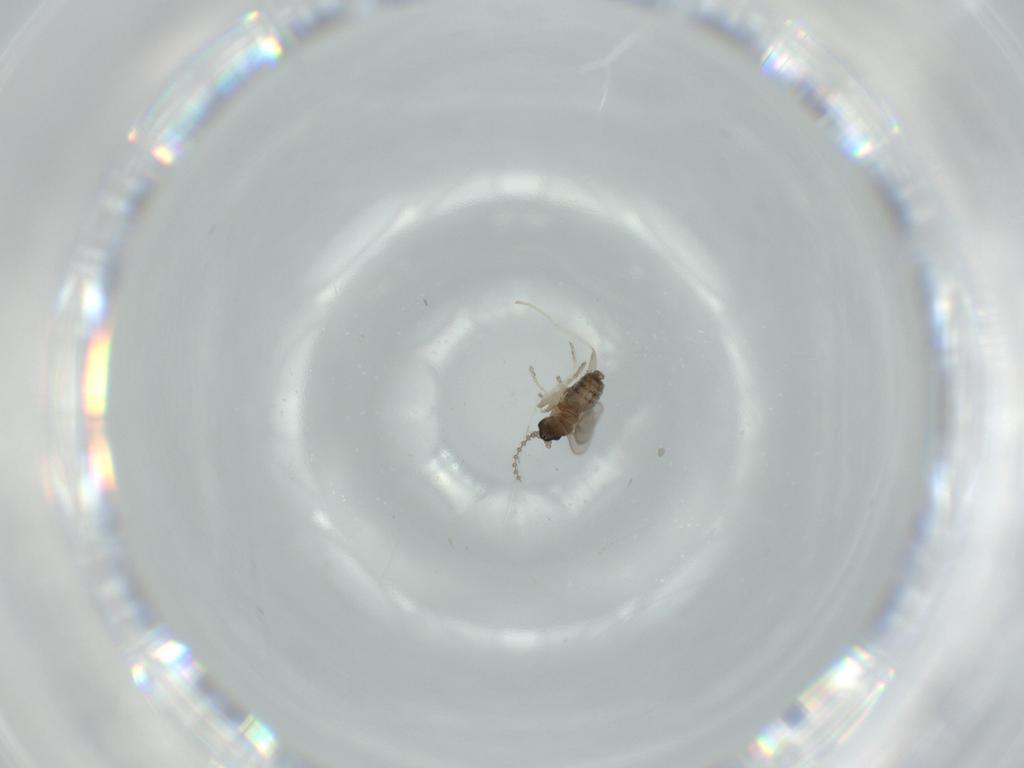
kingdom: Animalia
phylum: Arthropoda
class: Insecta
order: Diptera
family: Cecidomyiidae
